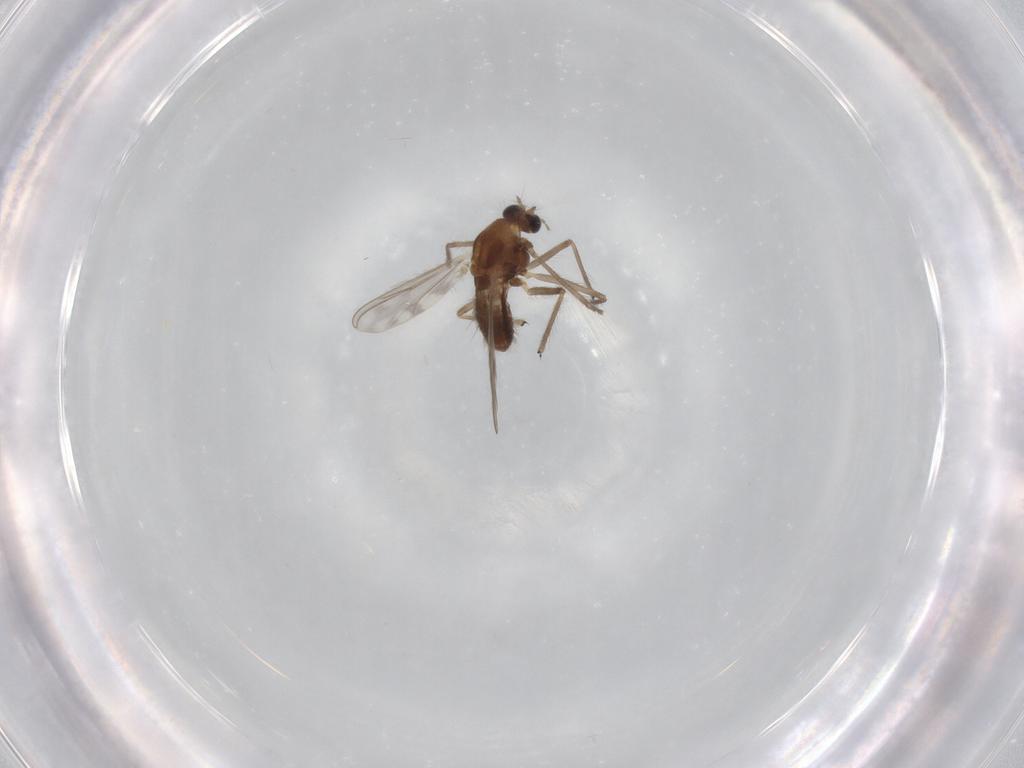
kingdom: Animalia
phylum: Arthropoda
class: Insecta
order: Diptera
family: Chironomidae
